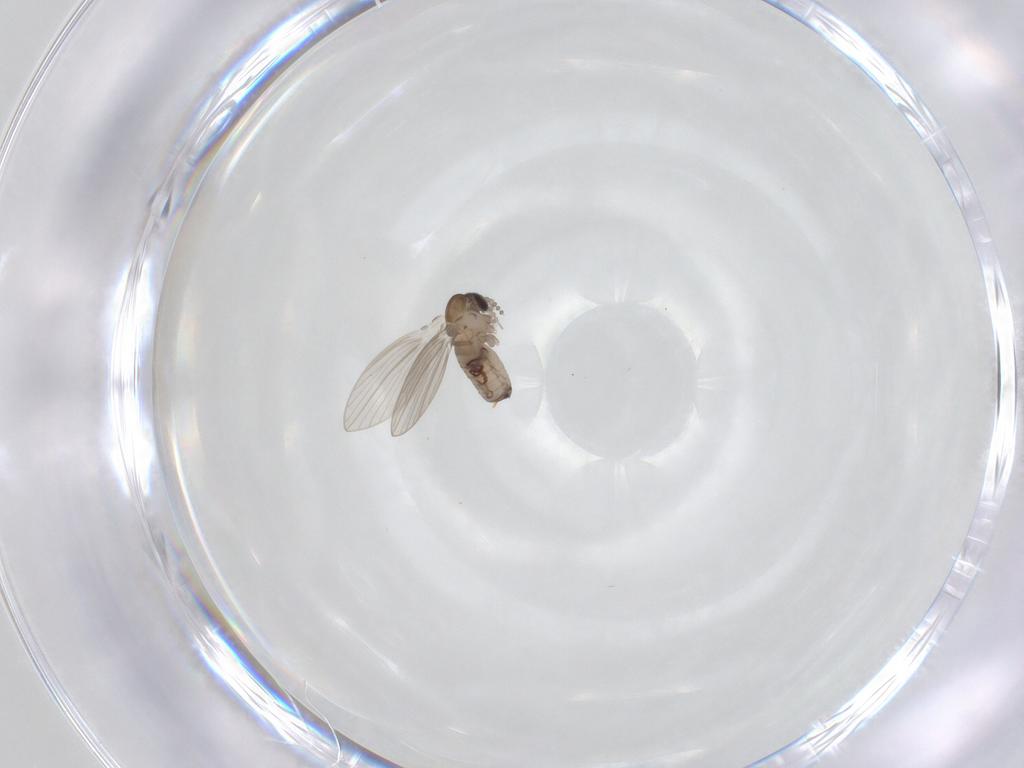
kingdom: Animalia
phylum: Arthropoda
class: Insecta
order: Diptera
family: Psychodidae
